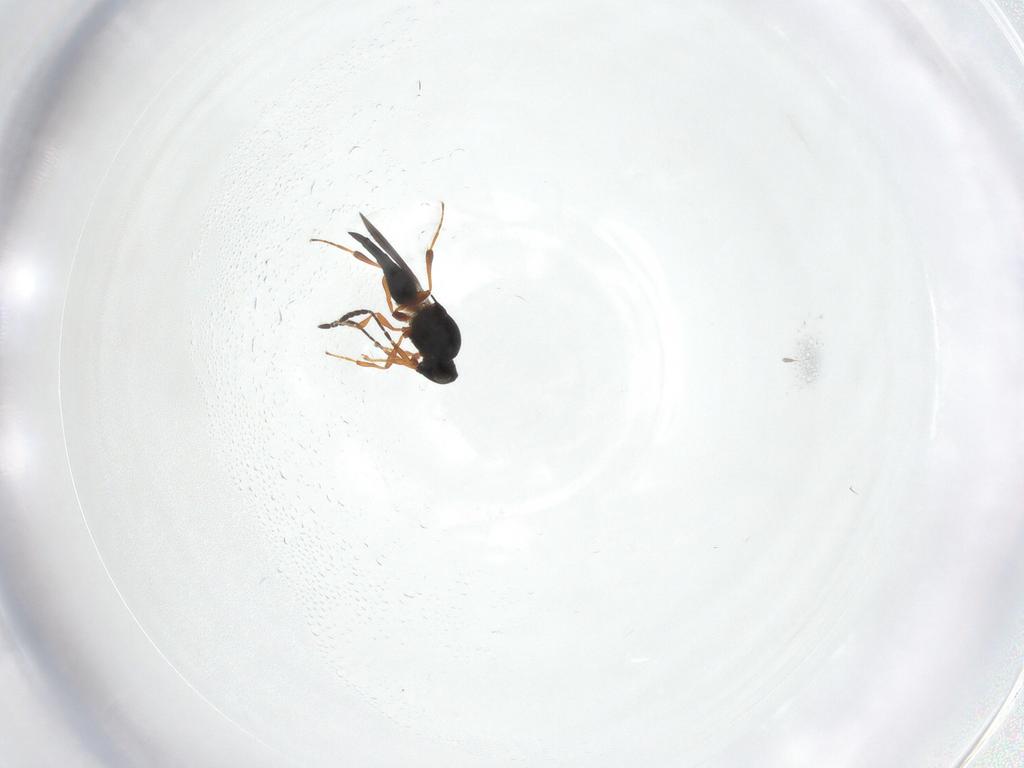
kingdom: Animalia
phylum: Arthropoda
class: Insecta
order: Hymenoptera
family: Platygastridae
